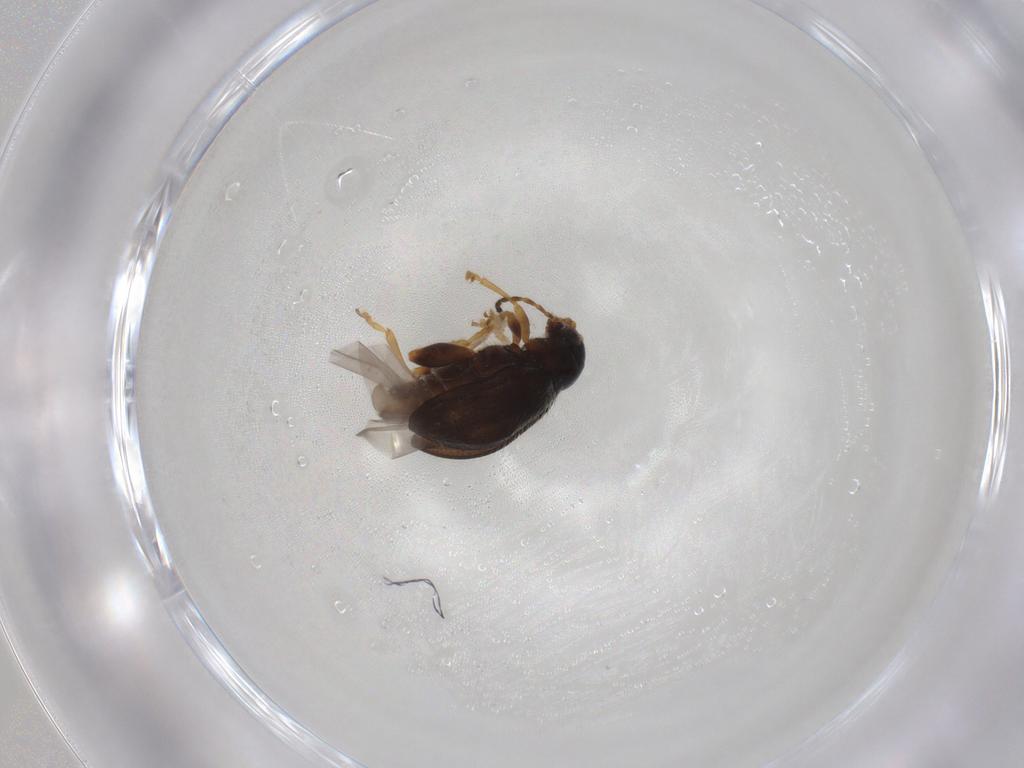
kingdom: Animalia
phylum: Arthropoda
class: Insecta
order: Coleoptera
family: Chrysomelidae
